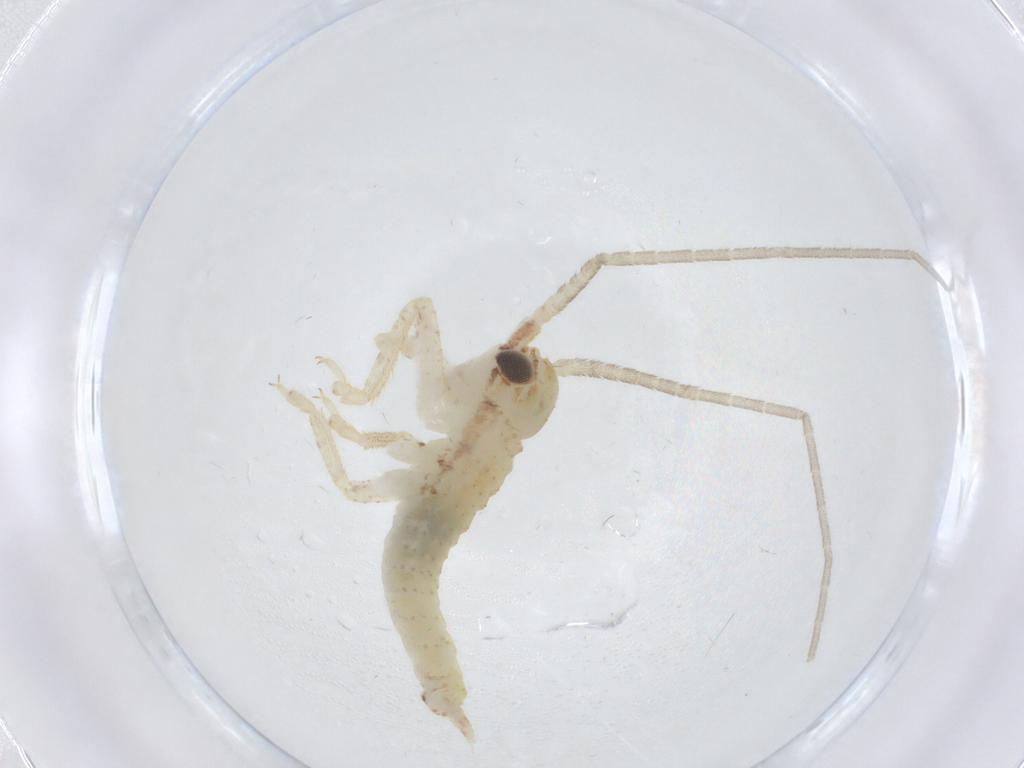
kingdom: Animalia
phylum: Arthropoda
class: Insecta
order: Orthoptera
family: Gryllidae
